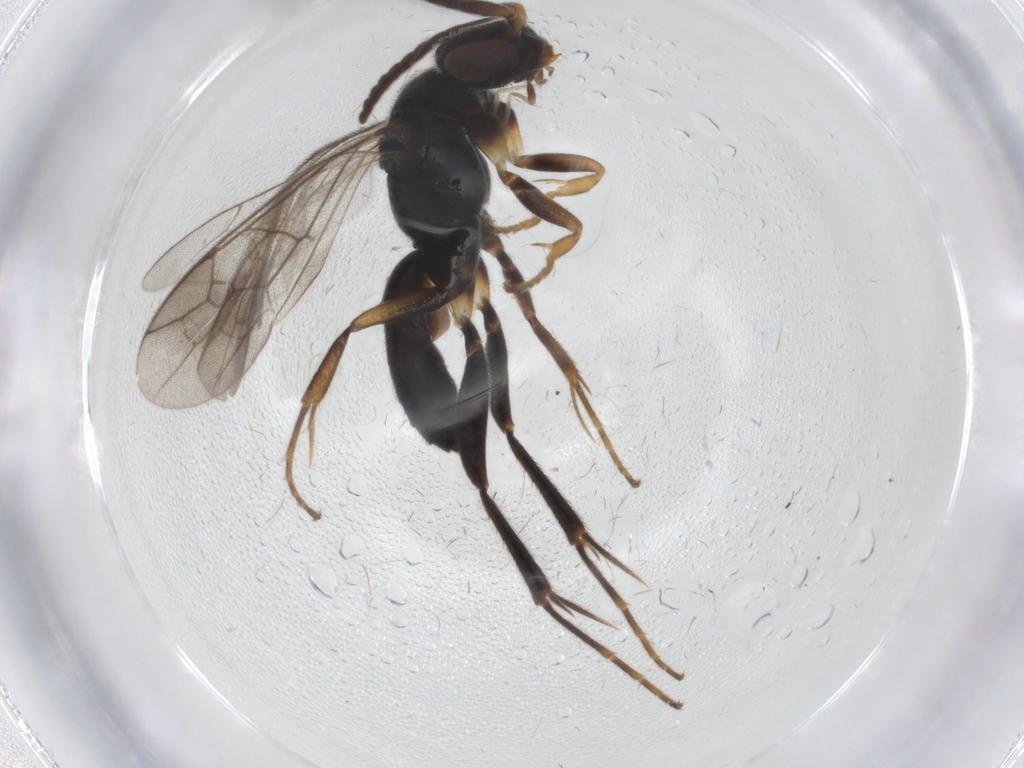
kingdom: Animalia
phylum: Arthropoda
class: Insecta
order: Hymenoptera
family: Pompilidae
